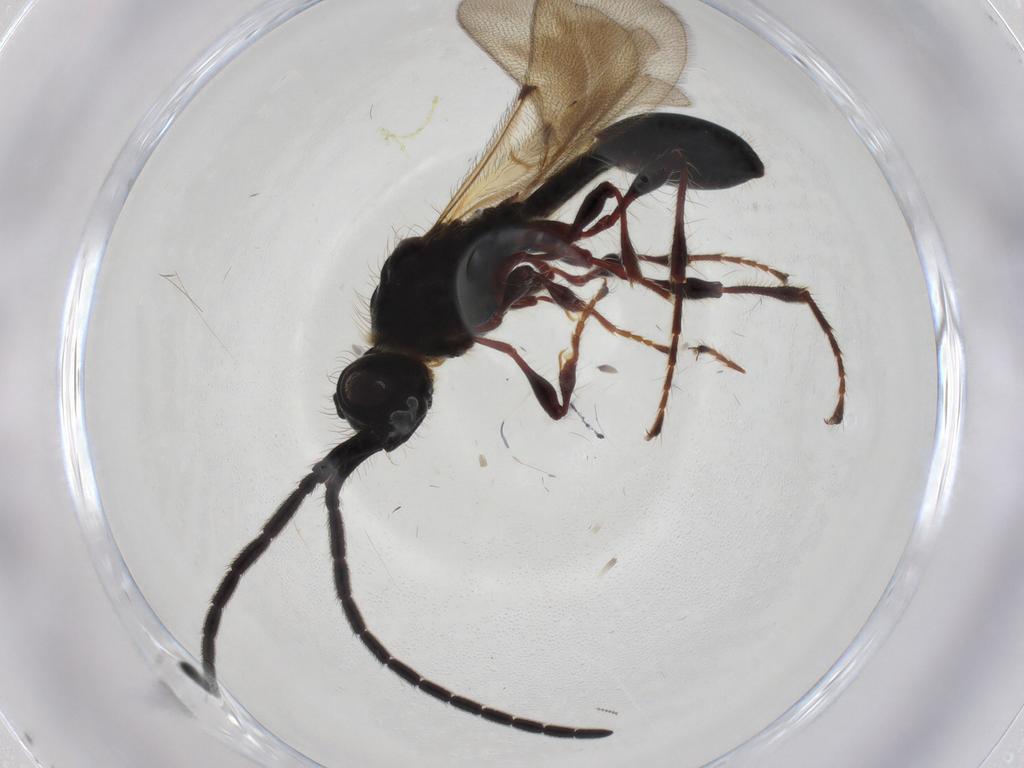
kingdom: Animalia
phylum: Arthropoda
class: Insecta
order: Hymenoptera
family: Diapriidae
